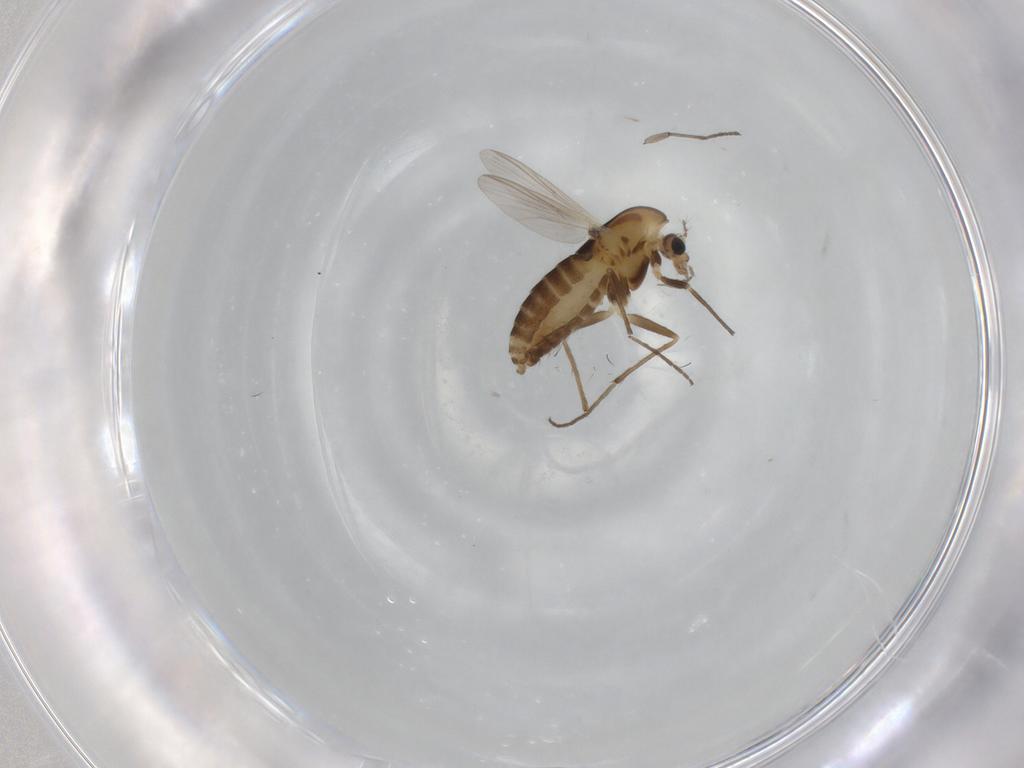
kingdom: Animalia
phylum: Arthropoda
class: Insecta
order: Diptera
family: Chironomidae
